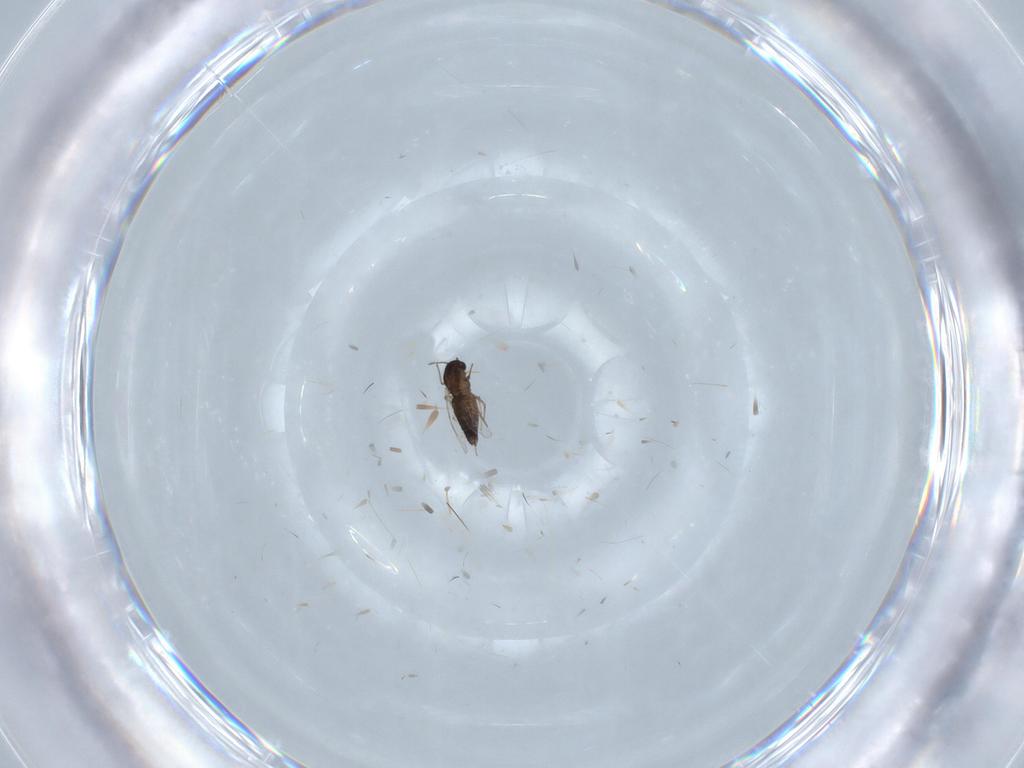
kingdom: Animalia
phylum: Arthropoda
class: Insecta
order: Diptera
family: Chironomidae
